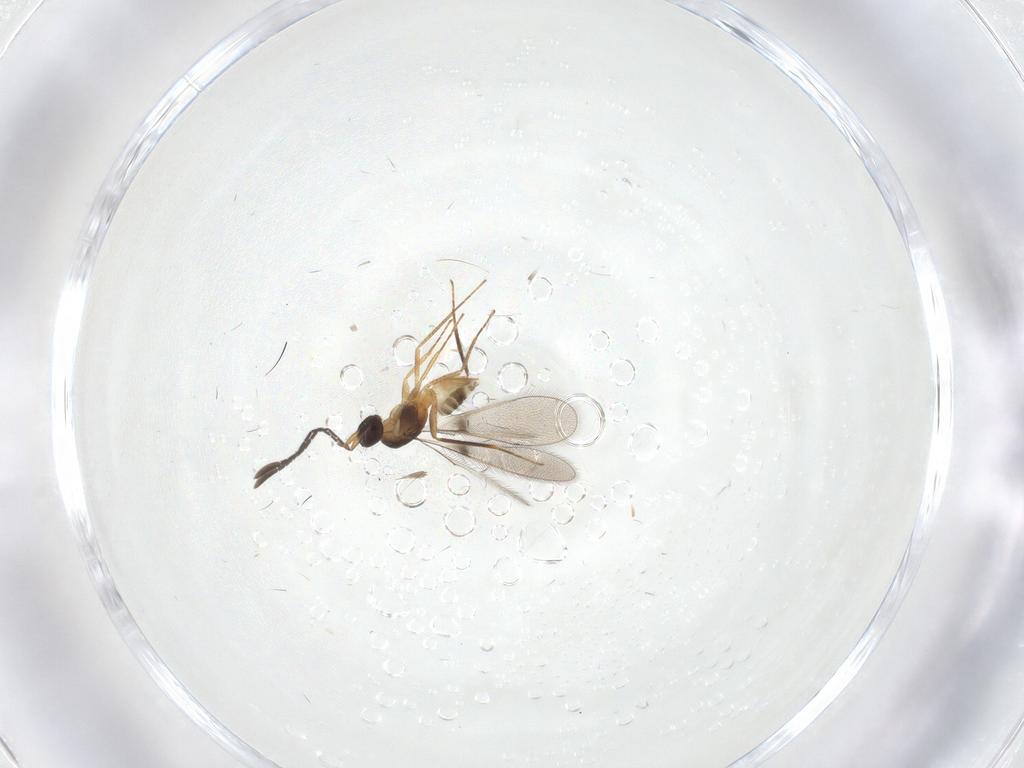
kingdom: Animalia
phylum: Arthropoda
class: Insecta
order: Hymenoptera
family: Mymaridae
